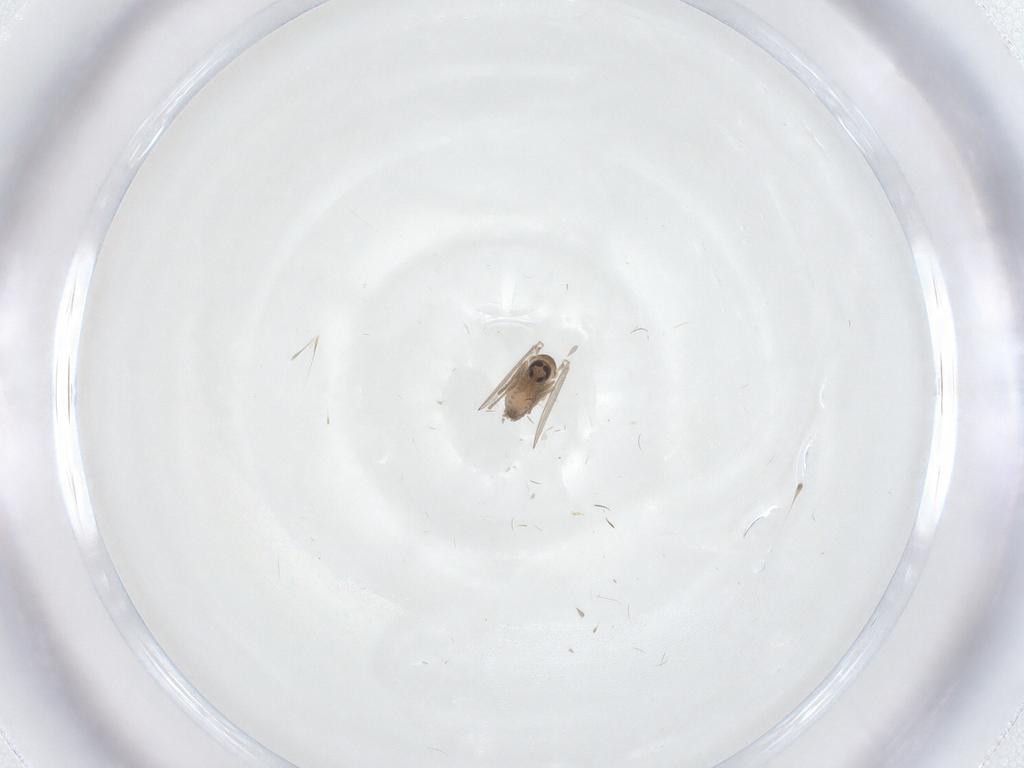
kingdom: Animalia
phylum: Arthropoda
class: Insecta
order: Diptera
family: Psychodidae
